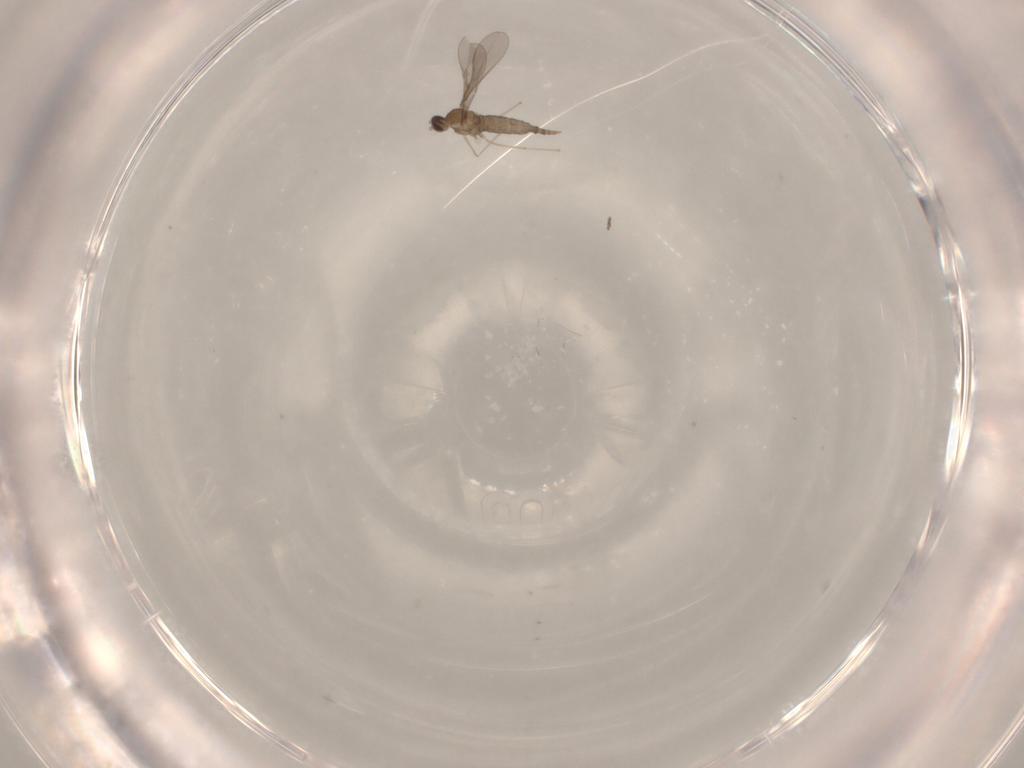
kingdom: Animalia
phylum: Arthropoda
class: Insecta
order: Diptera
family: Cecidomyiidae
